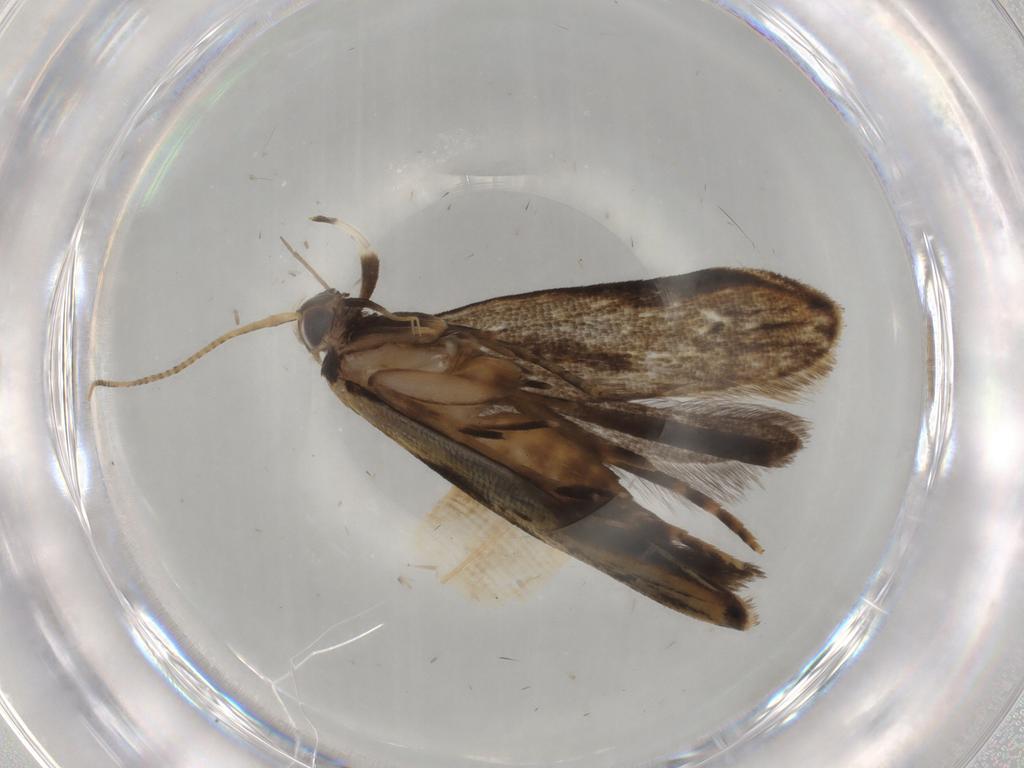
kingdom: Animalia
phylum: Arthropoda
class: Insecta
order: Lepidoptera
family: Gelechiidae
